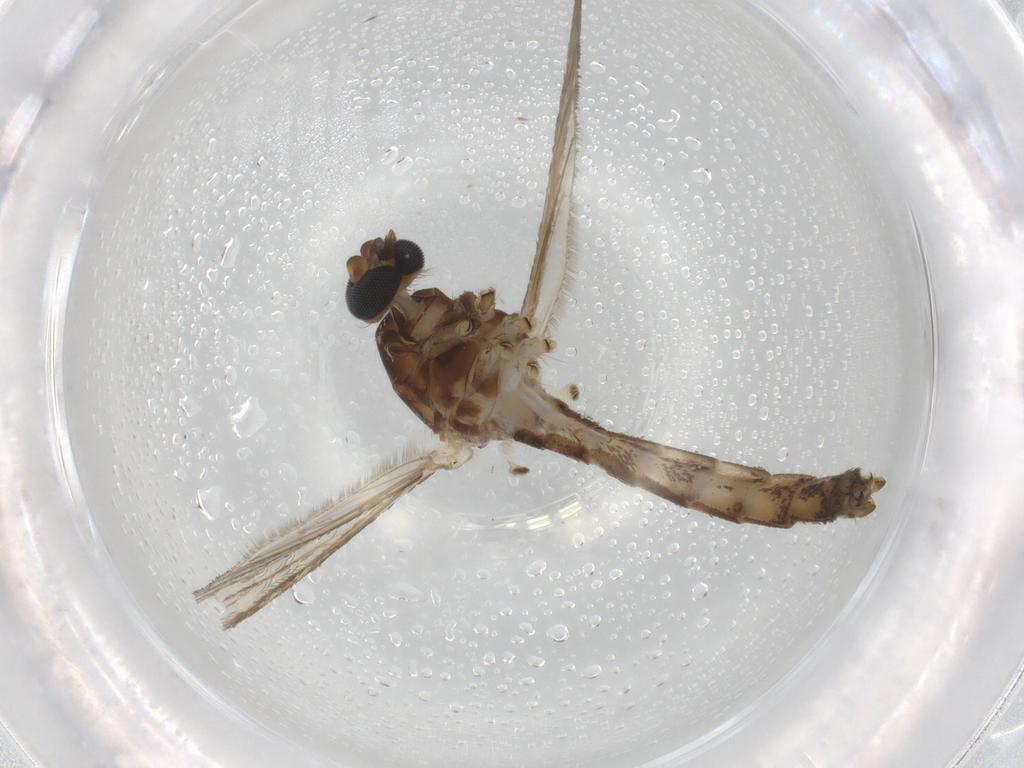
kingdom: Animalia
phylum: Arthropoda
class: Insecta
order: Diptera
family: Muscidae
